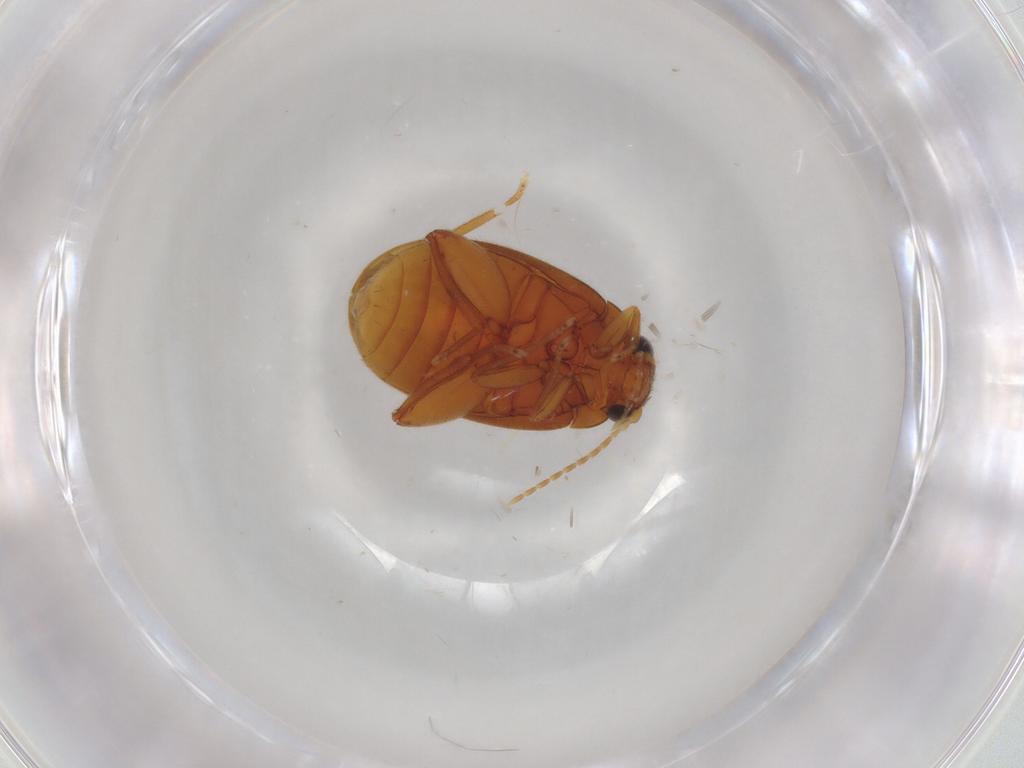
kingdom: Animalia
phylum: Arthropoda
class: Insecta
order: Coleoptera
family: Scirtidae
